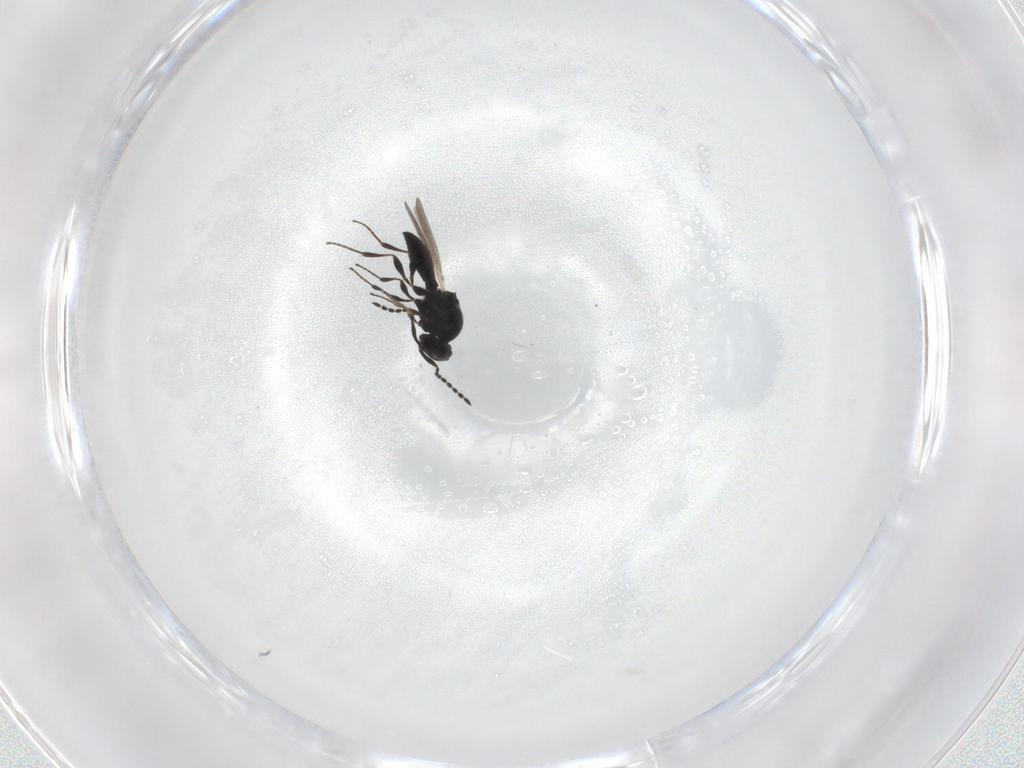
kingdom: Animalia
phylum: Arthropoda
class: Insecta
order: Hymenoptera
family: Platygastridae
